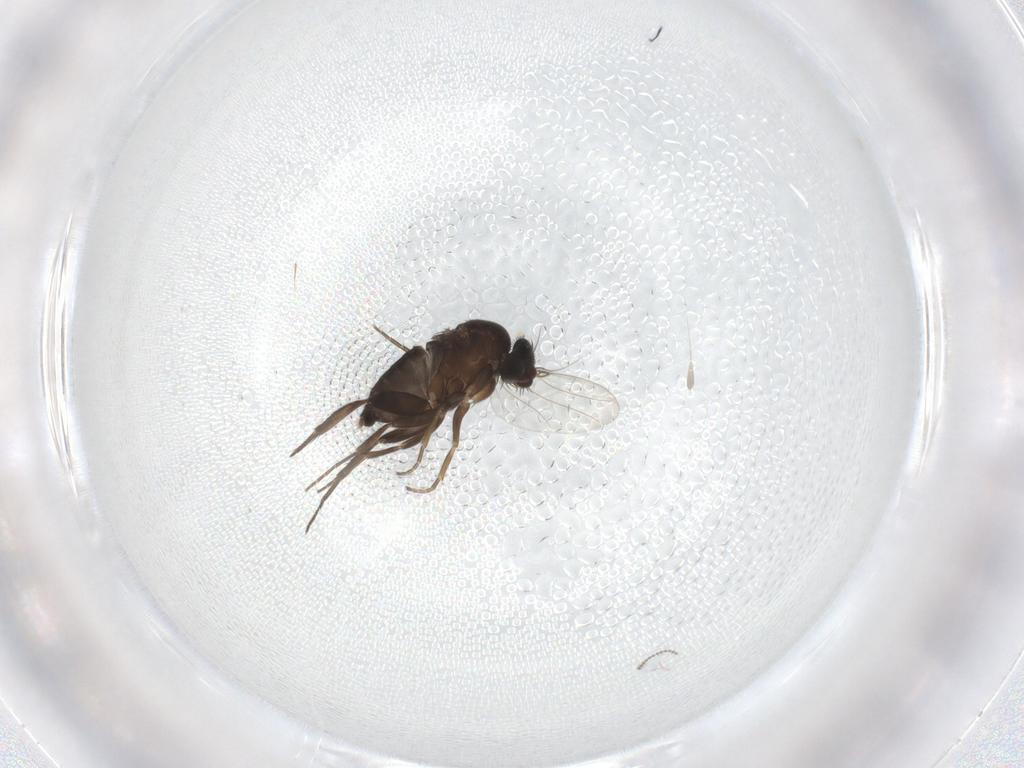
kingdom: Animalia
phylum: Arthropoda
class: Insecta
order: Diptera
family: Phoridae
